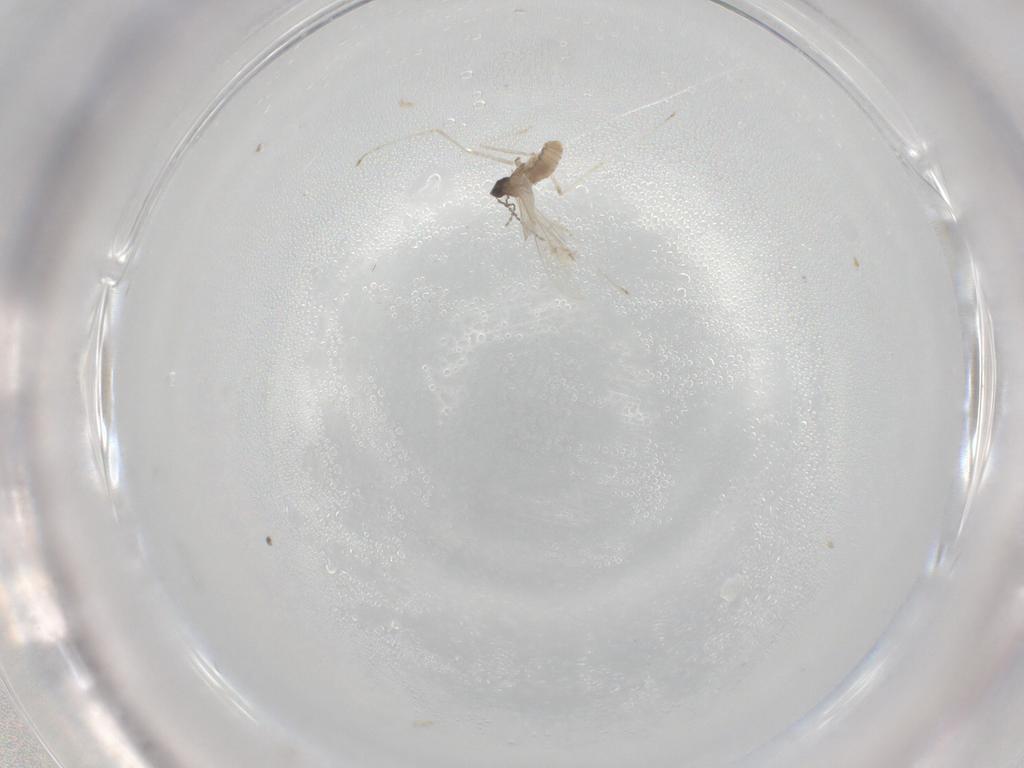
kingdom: Animalia
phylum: Arthropoda
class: Insecta
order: Diptera
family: Cecidomyiidae
